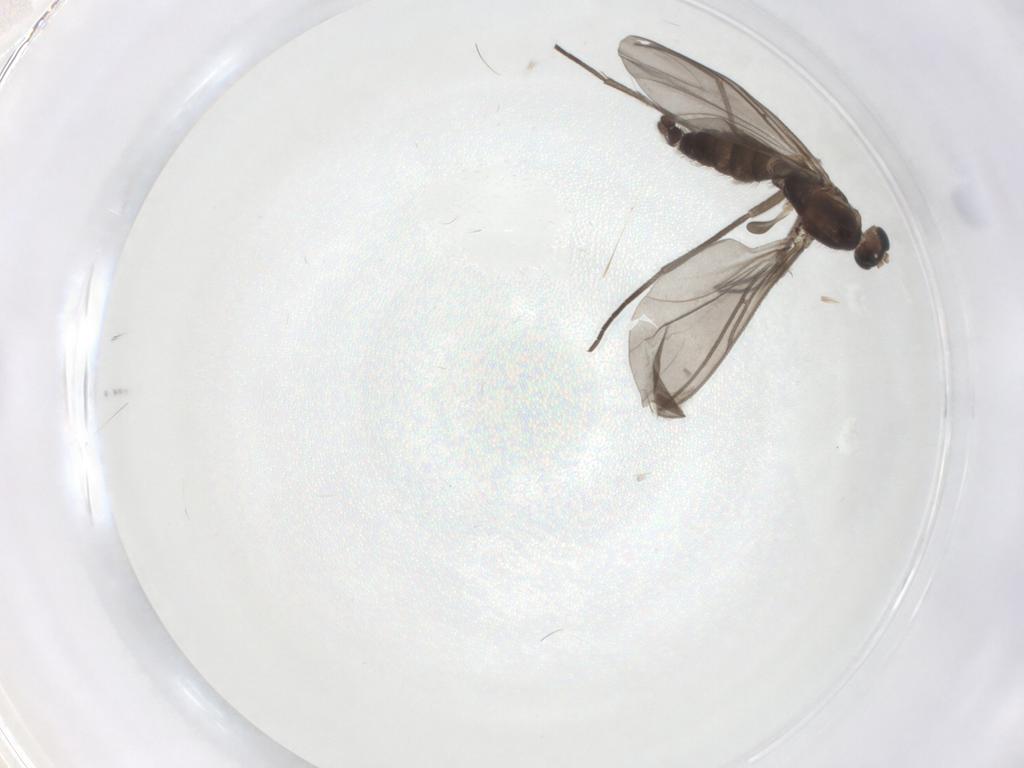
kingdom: Animalia
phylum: Arthropoda
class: Insecta
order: Diptera
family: Sciaridae
